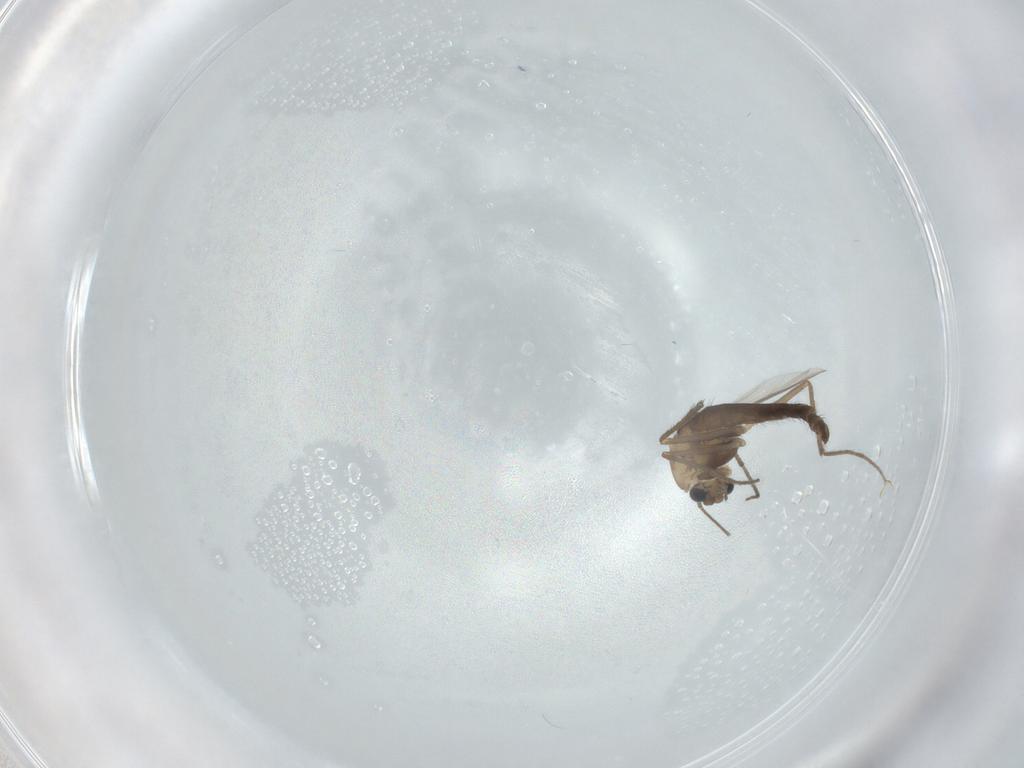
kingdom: Animalia
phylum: Arthropoda
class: Insecta
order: Diptera
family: Chironomidae
